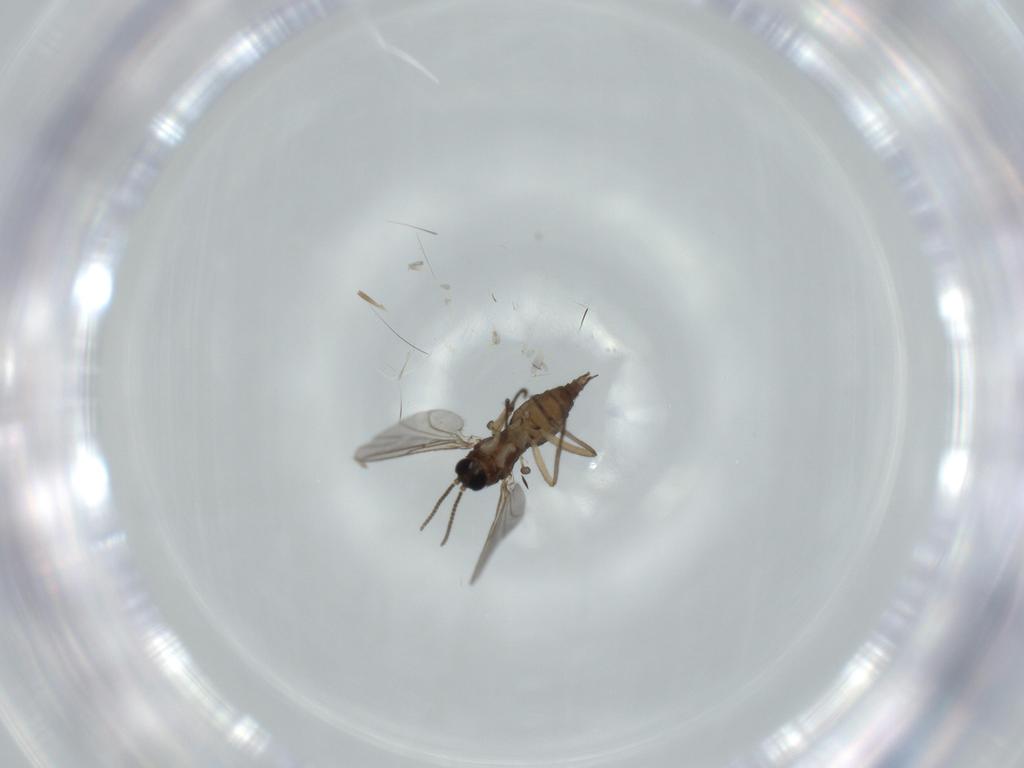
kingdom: Animalia
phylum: Arthropoda
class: Insecta
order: Diptera
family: Sciaridae
